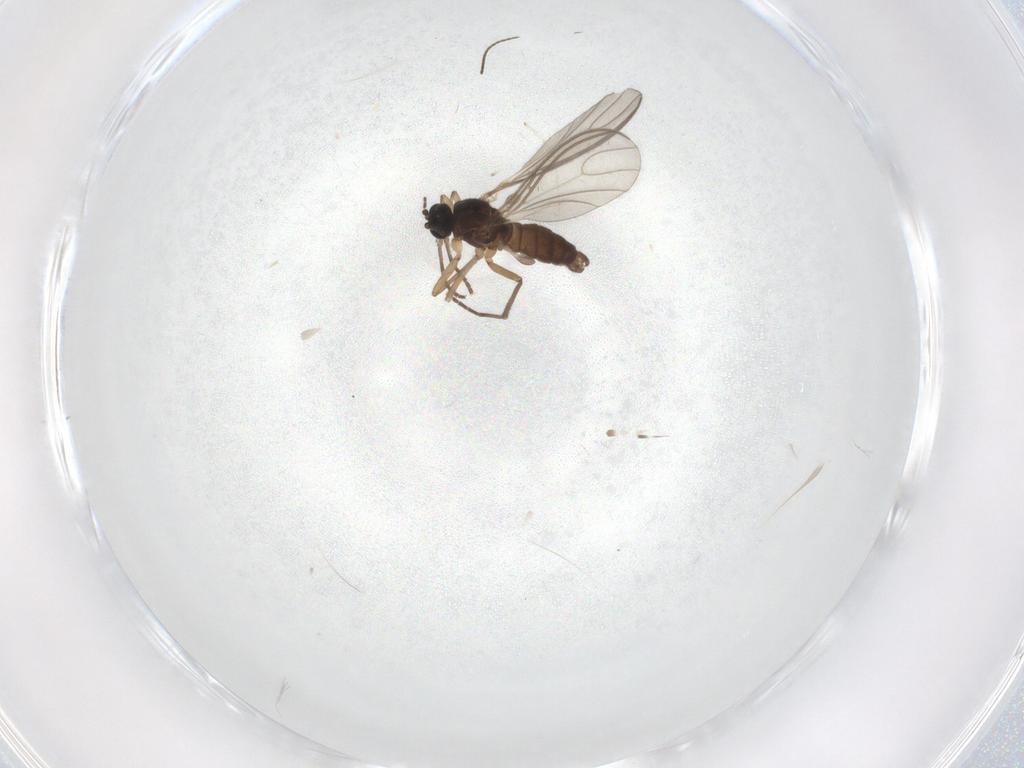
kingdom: Animalia
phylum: Arthropoda
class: Insecta
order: Diptera
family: Sciaridae
